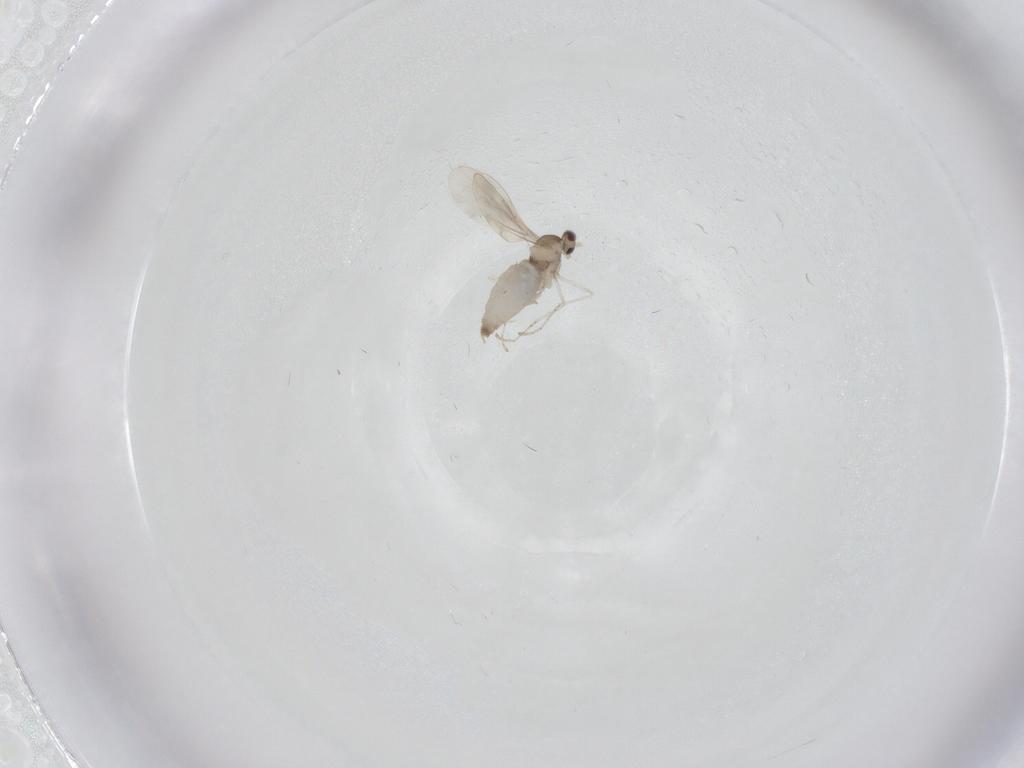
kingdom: Animalia
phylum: Arthropoda
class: Insecta
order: Diptera
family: Cecidomyiidae
